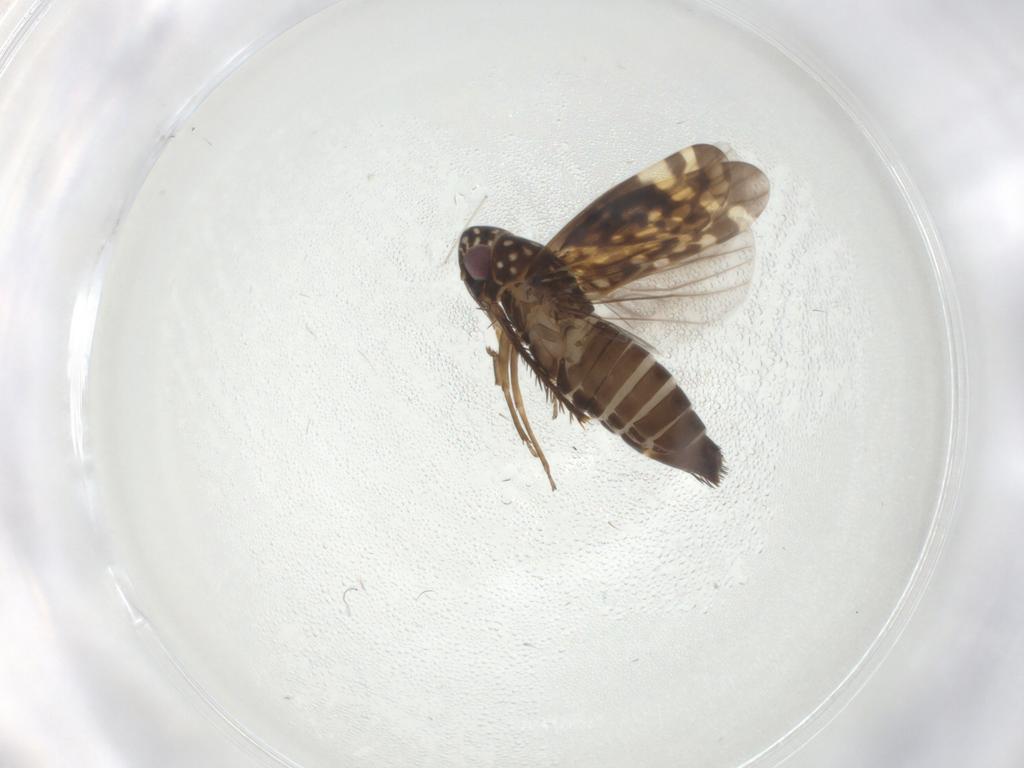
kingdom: Animalia
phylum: Arthropoda
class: Insecta
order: Hemiptera
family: Cicadellidae
